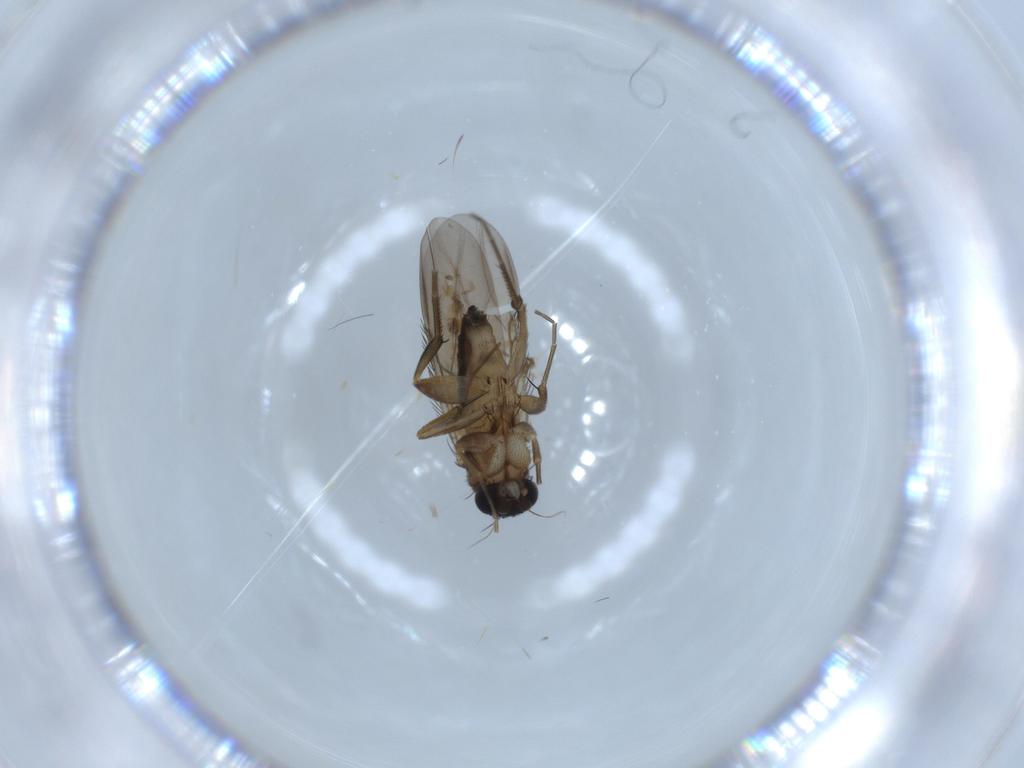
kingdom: Animalia
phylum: Arthropoda
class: Insecta
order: Diptera
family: Phoridae
